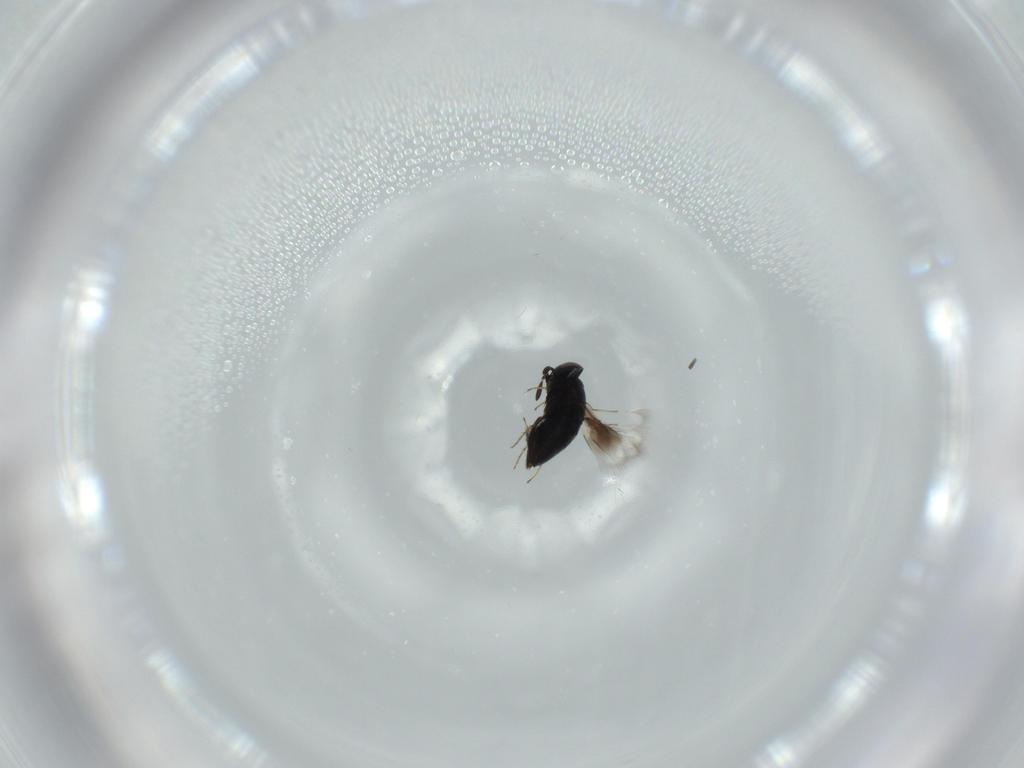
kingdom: Animalia
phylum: Arthropoda
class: Insecta
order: Hymenoptera
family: Signiphoridae
